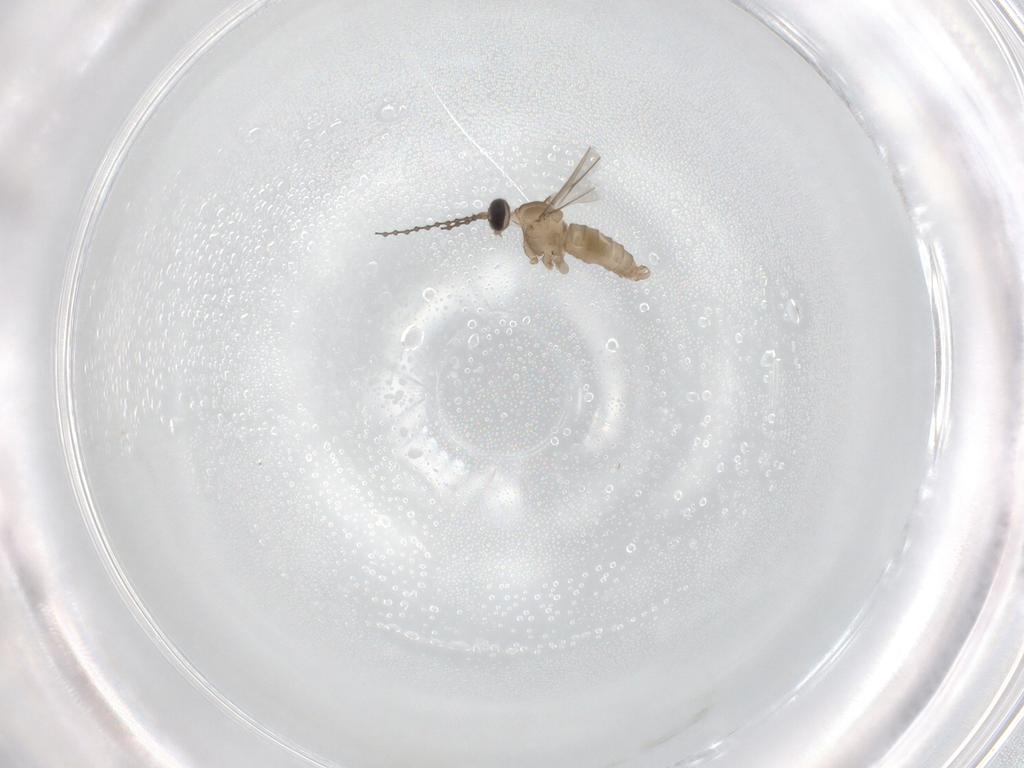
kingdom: Animalia
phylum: Arthropoda
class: Insecta
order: Diptera
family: Cecidomyiidae
